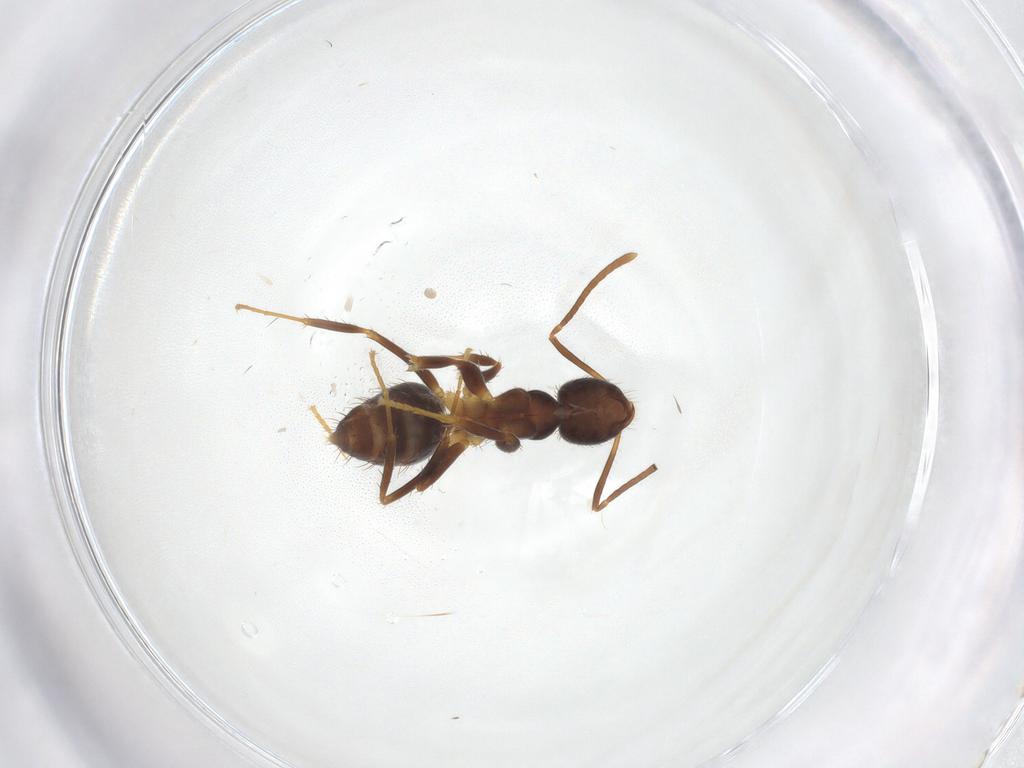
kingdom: Animalia
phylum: Arthropoda
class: Insecta
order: Hymenoptera
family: Formicidae
